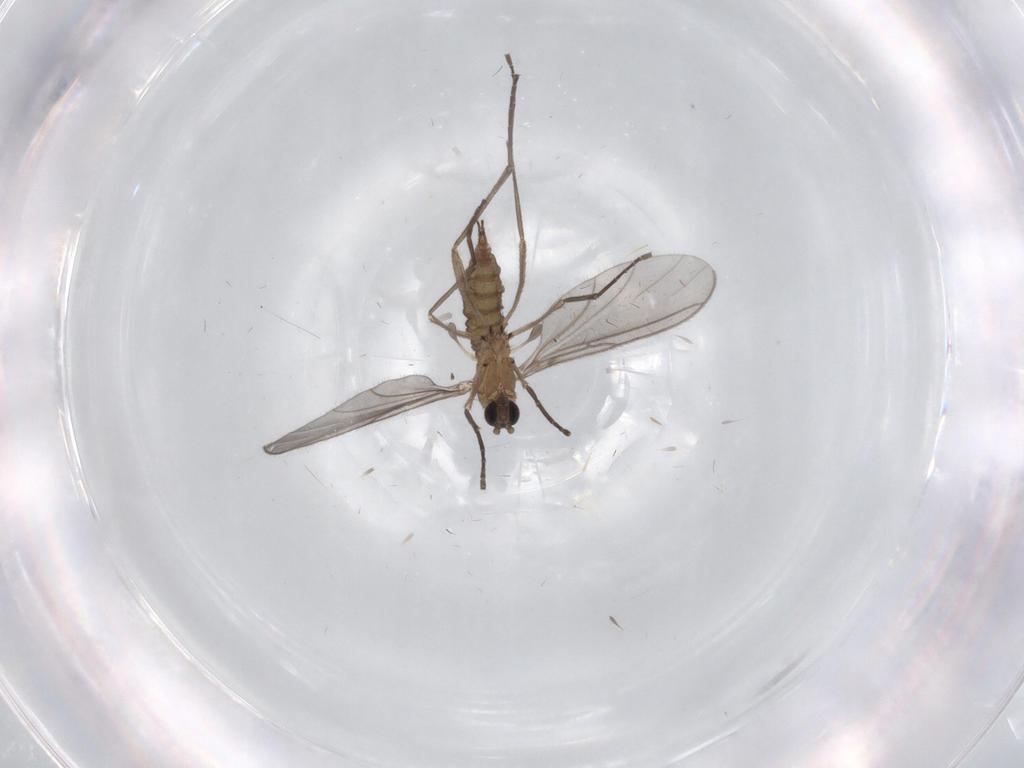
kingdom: Animalia
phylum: Arthropoda
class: Insecta
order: Diptera
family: Sciaridae
